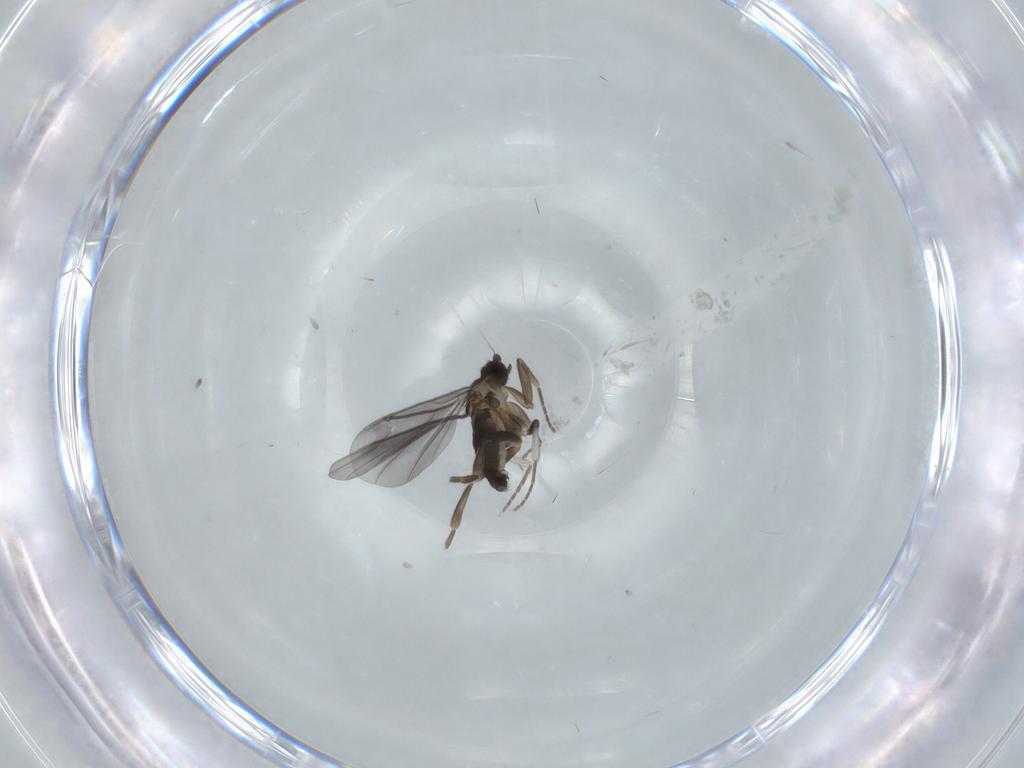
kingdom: Animalia
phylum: Arthropoda
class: Insecta
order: Diptera
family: Phoridae
